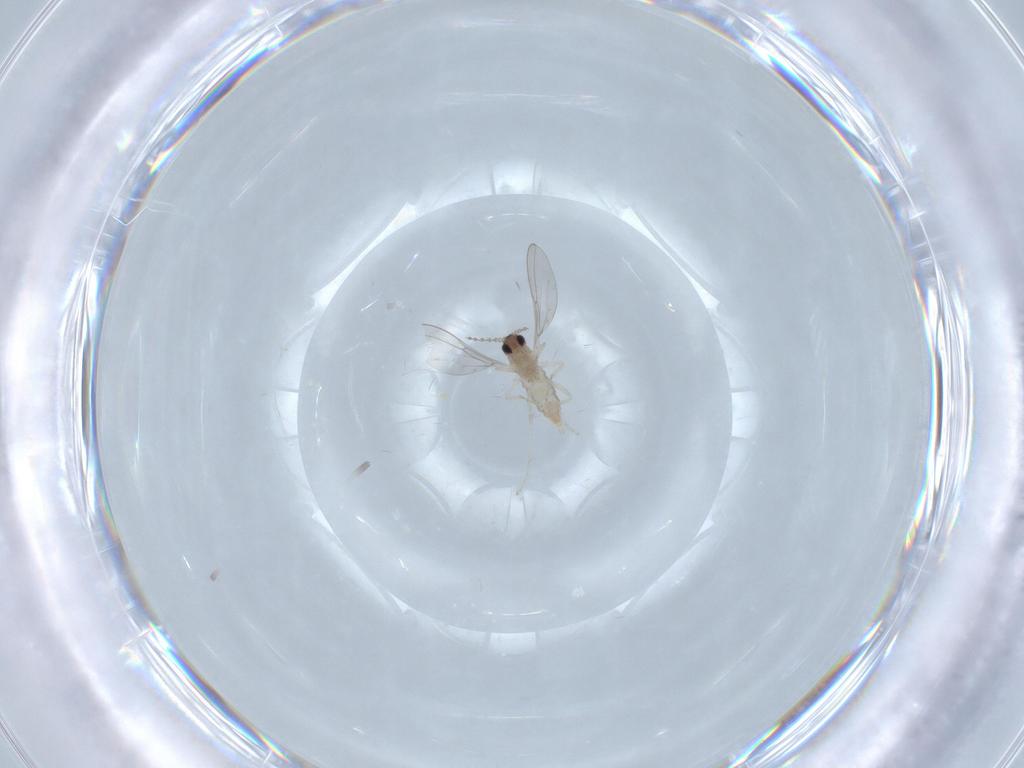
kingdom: Animalia
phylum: Arthropoda
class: Insecta
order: Diptera
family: Cecidomyiidae
